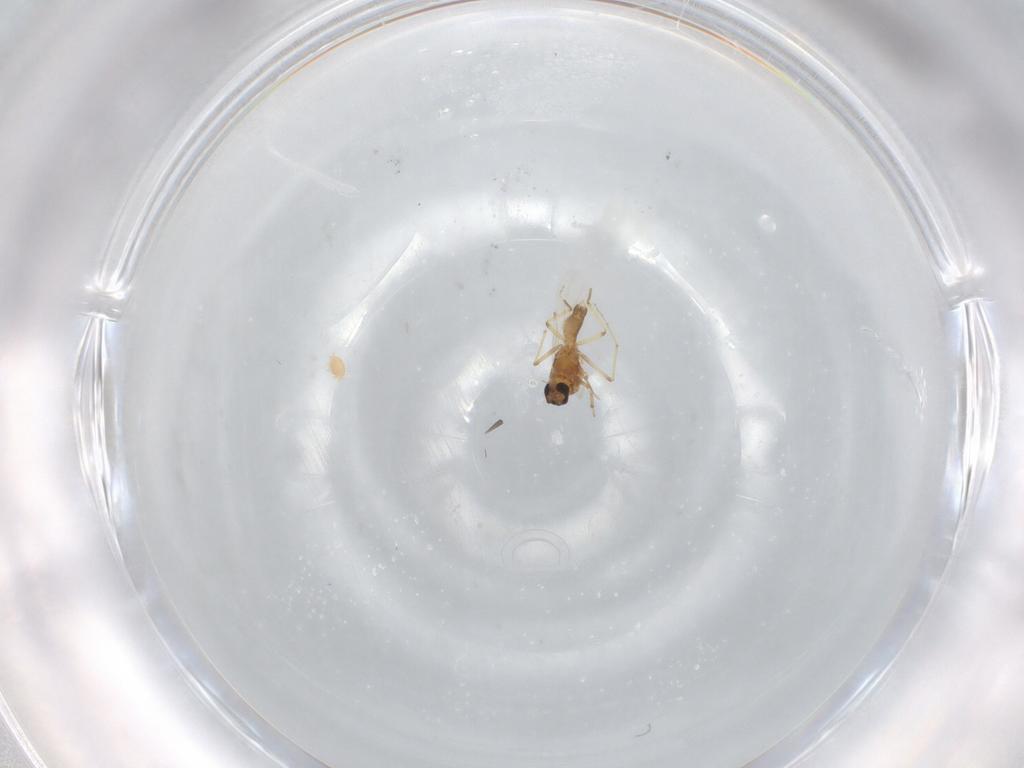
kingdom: Animalia
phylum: Arthropoda
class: Insecta
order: Diptera
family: Ceratopogonidae
